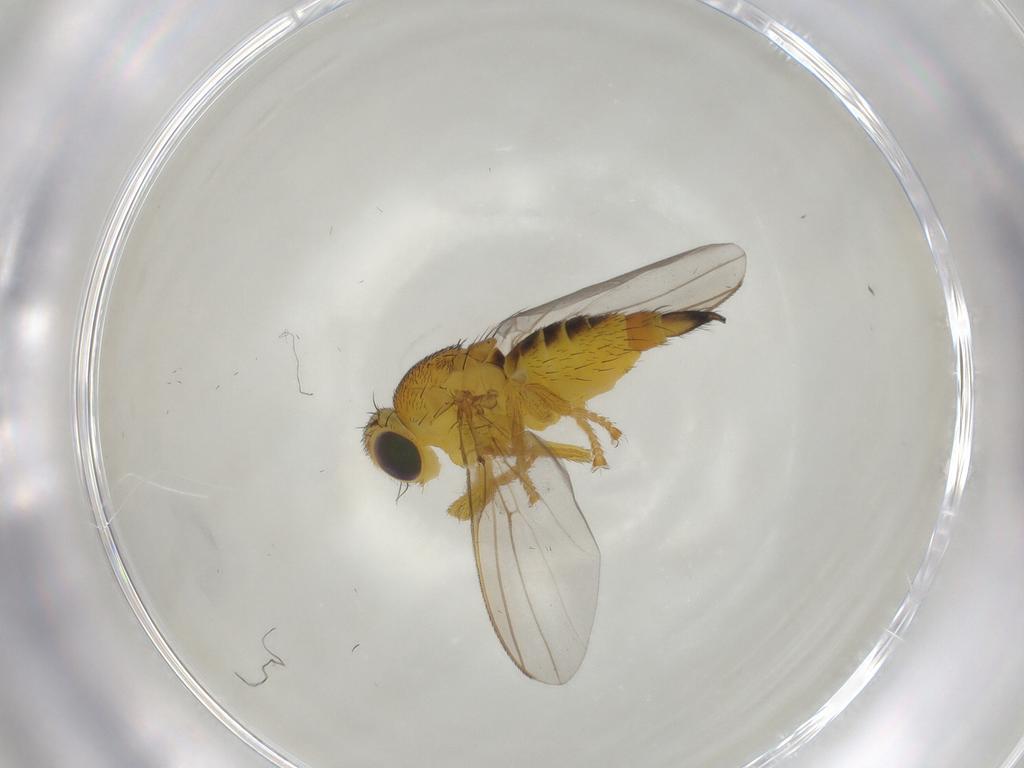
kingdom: Animalia
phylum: Arthropoda
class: Insecta
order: Diptera
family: Fergusoninidae
